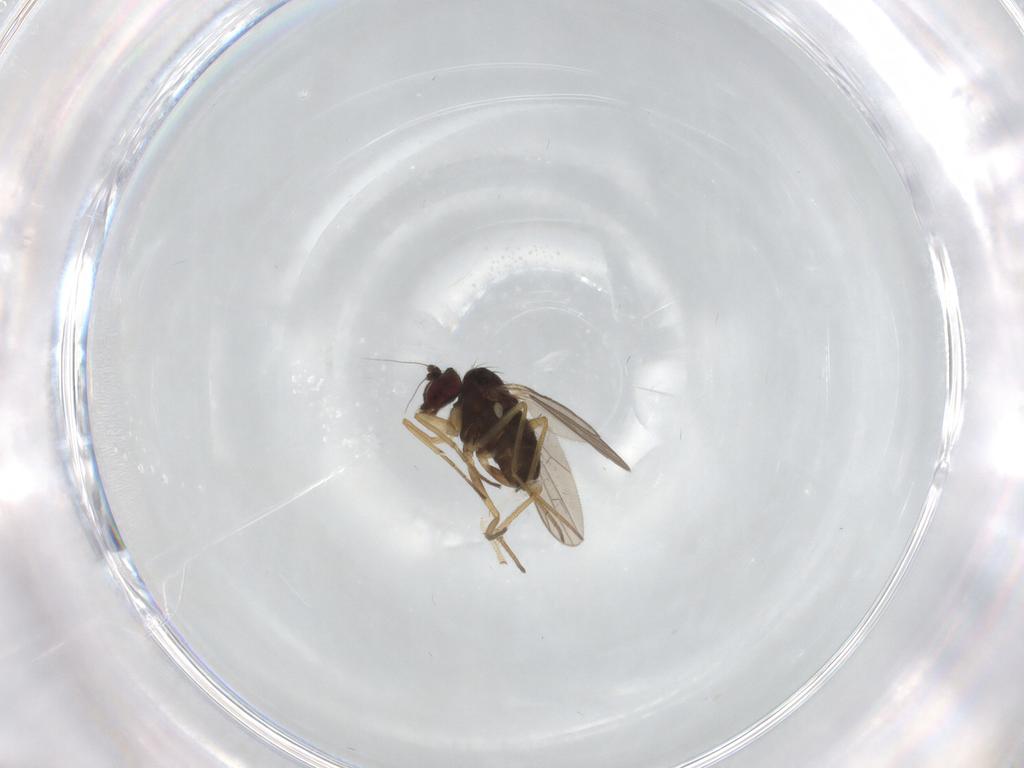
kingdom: Animalia
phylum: Arthropoda
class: Insecta
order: Diptera
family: Dolichopodidae
